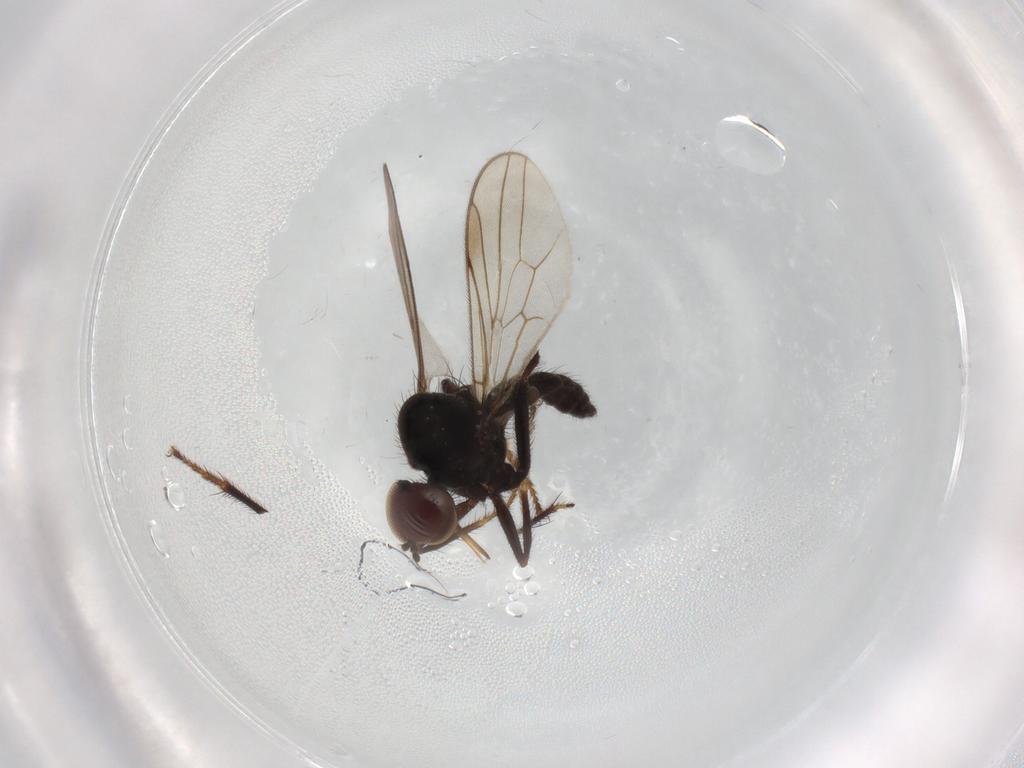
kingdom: Animalia
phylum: Arthropoda
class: Insecta
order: Diptera
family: Hybotidae
